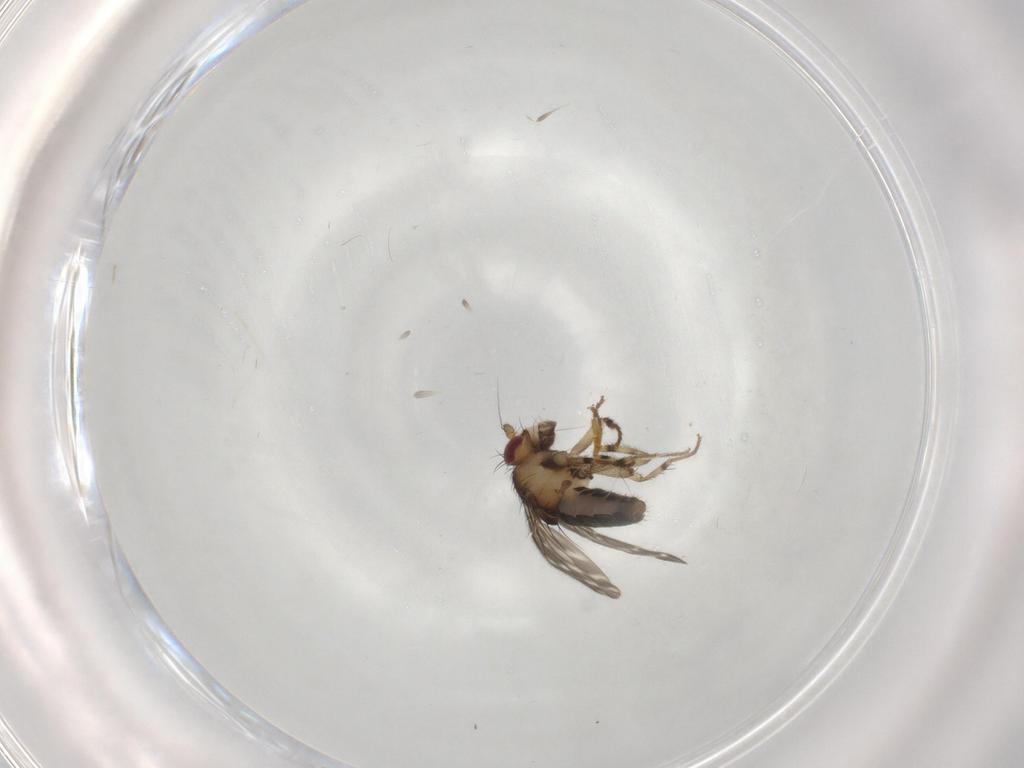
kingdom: Animalia
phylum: Arthropoda
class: Insecta
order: Diptera
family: Sphaeroceridae
